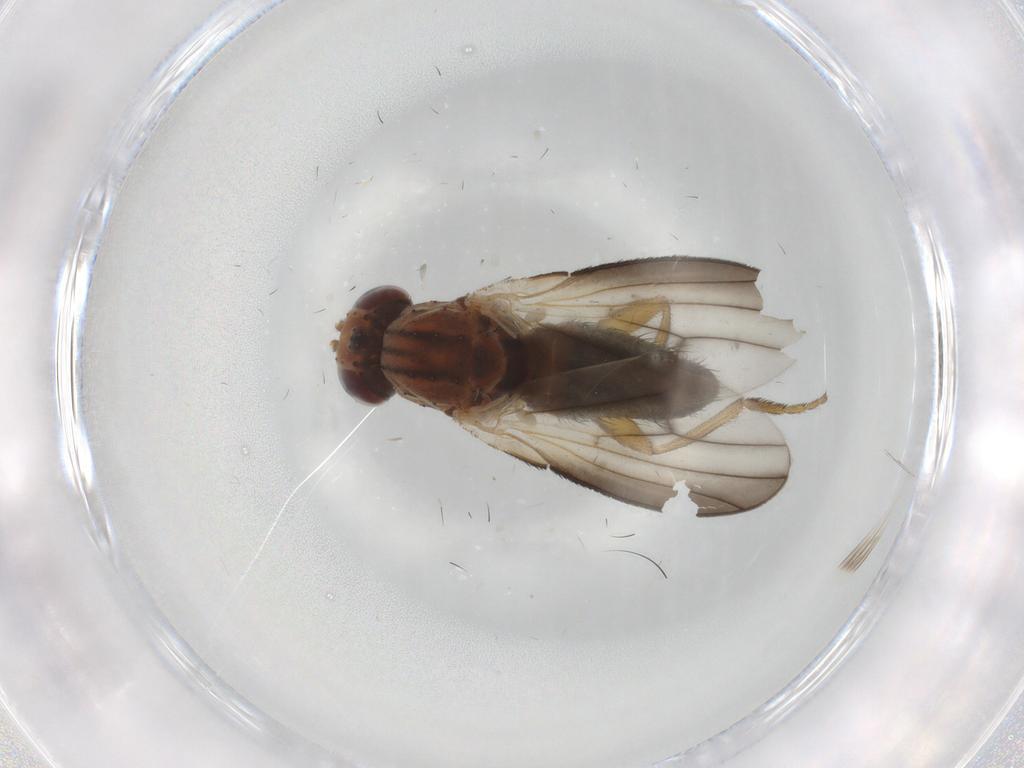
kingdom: Animalia
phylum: Arthropoda
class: Insecta
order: Diptera
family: Heleomyzidae
